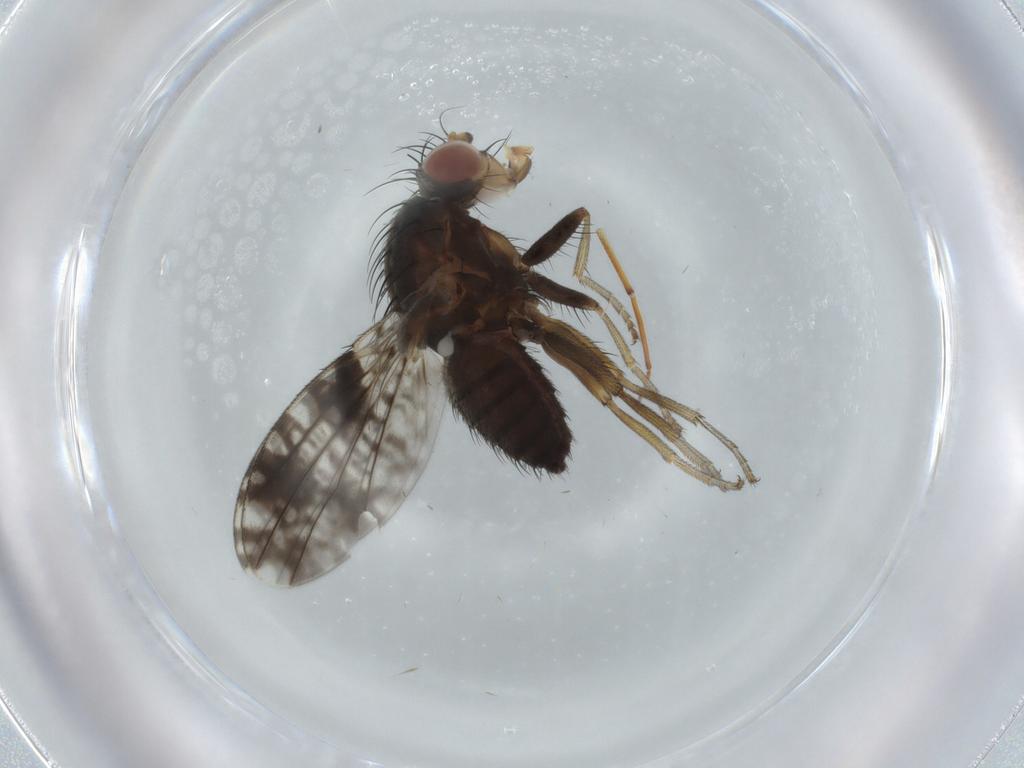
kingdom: Animalia
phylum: Arthropoda
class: Insecta
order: Diptera
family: Tephritidae
